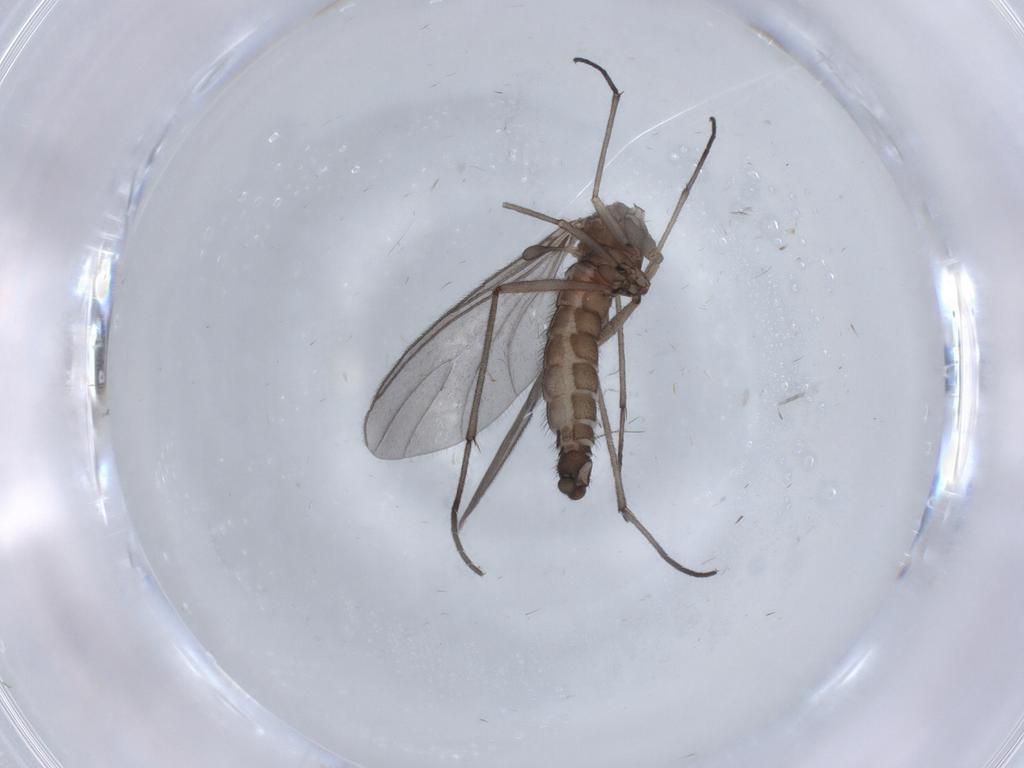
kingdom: Animalia
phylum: Arthropoda
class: Insecta
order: Diptera
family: Sciaridae
